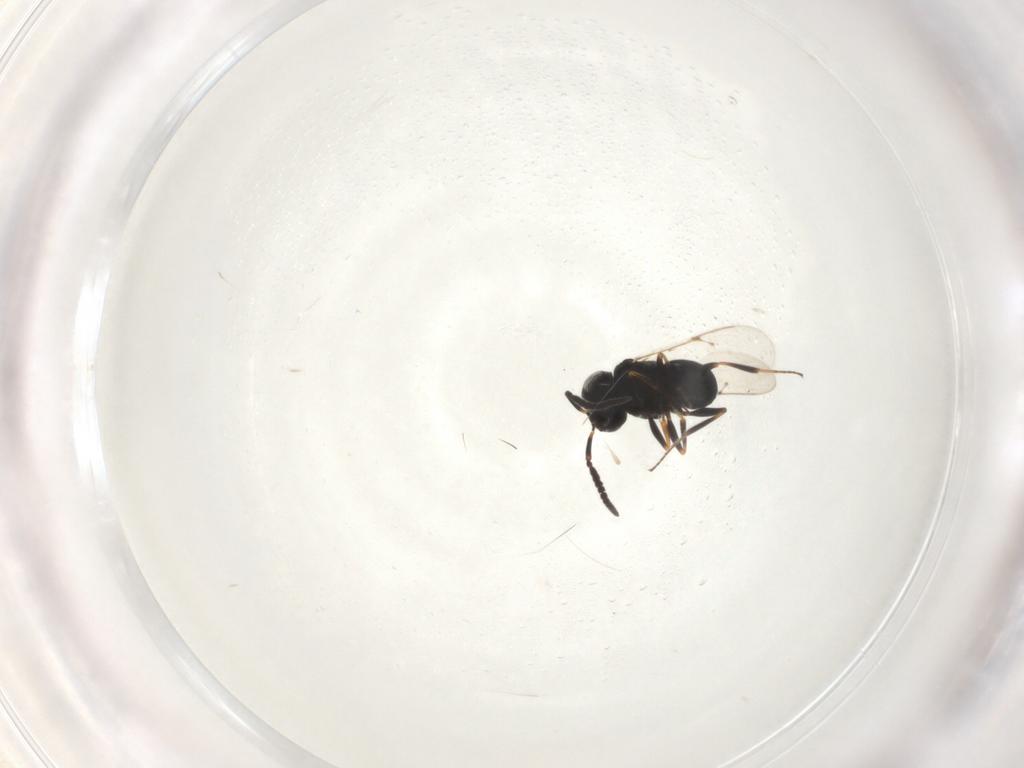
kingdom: Animalia
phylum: Arthropoda
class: Insecta
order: Hymenoptera
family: Scelionidae
